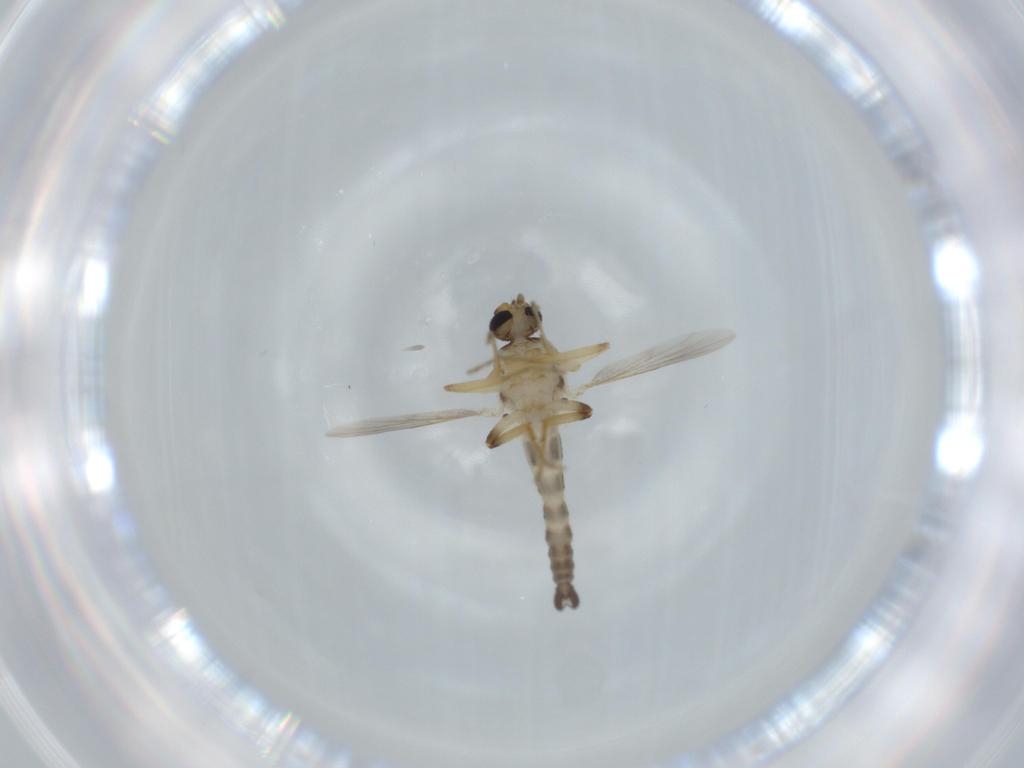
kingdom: Animalia
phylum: Arthropoda
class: Insecta
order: Diptera
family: Ceratopogonidae
